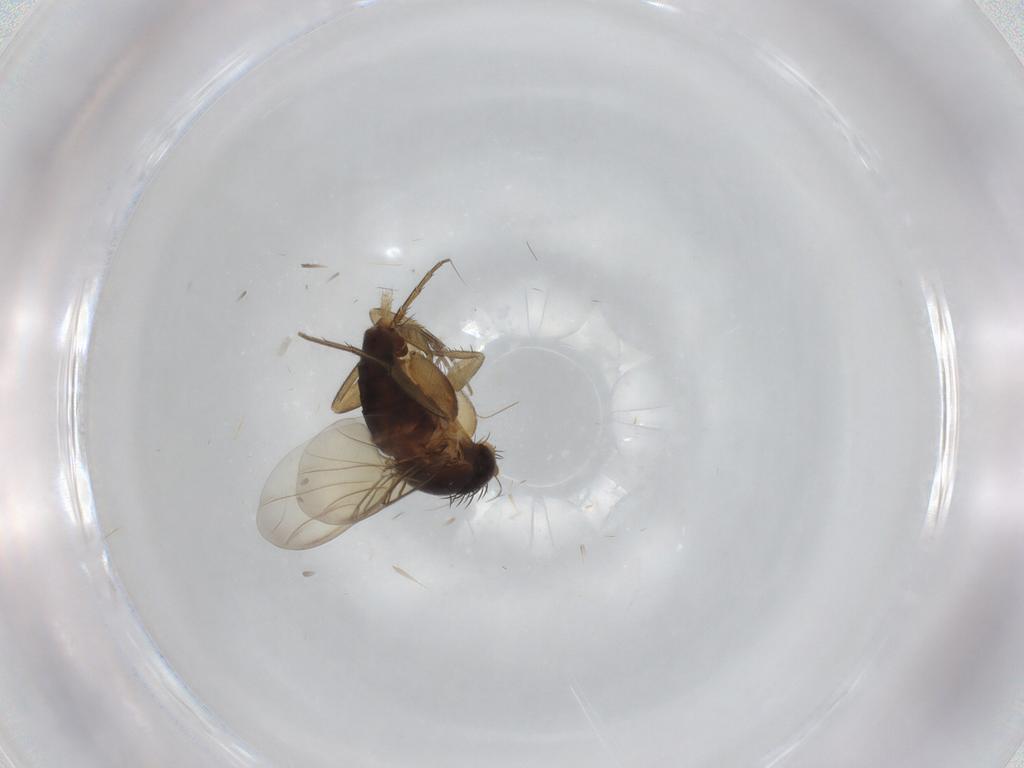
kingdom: Animalia
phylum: Arthropoda
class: Insecta
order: Diptera
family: Phoridae
